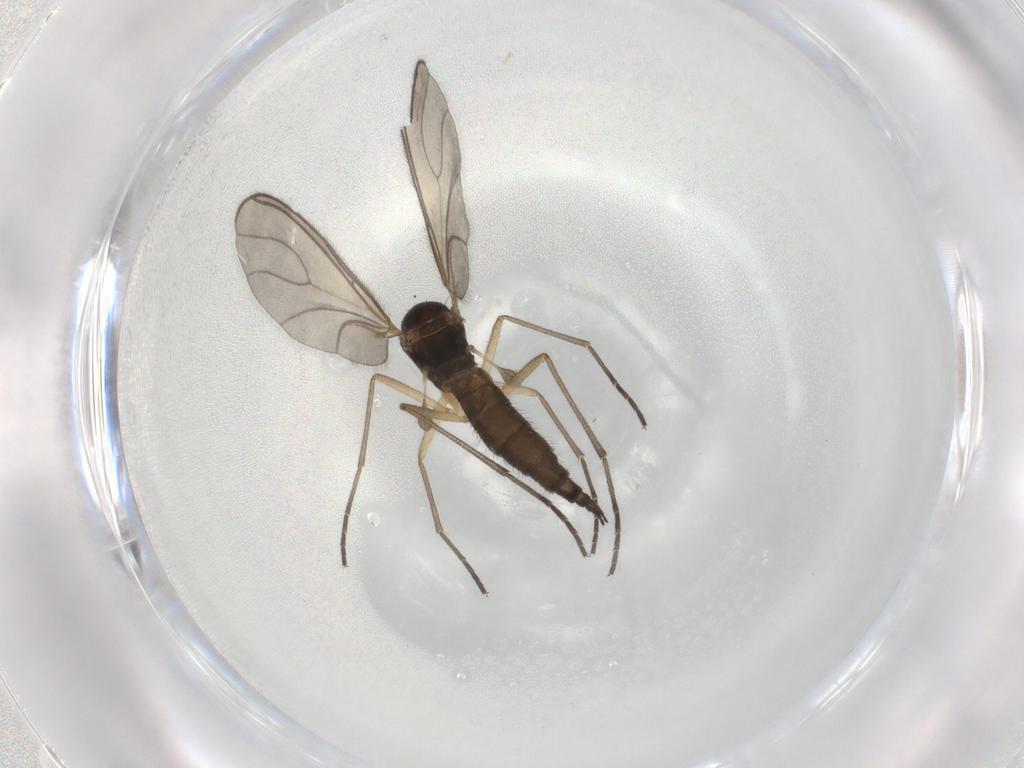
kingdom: Animalia
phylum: Arthropoda
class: Insecta
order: Diptera
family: Sciaridae
